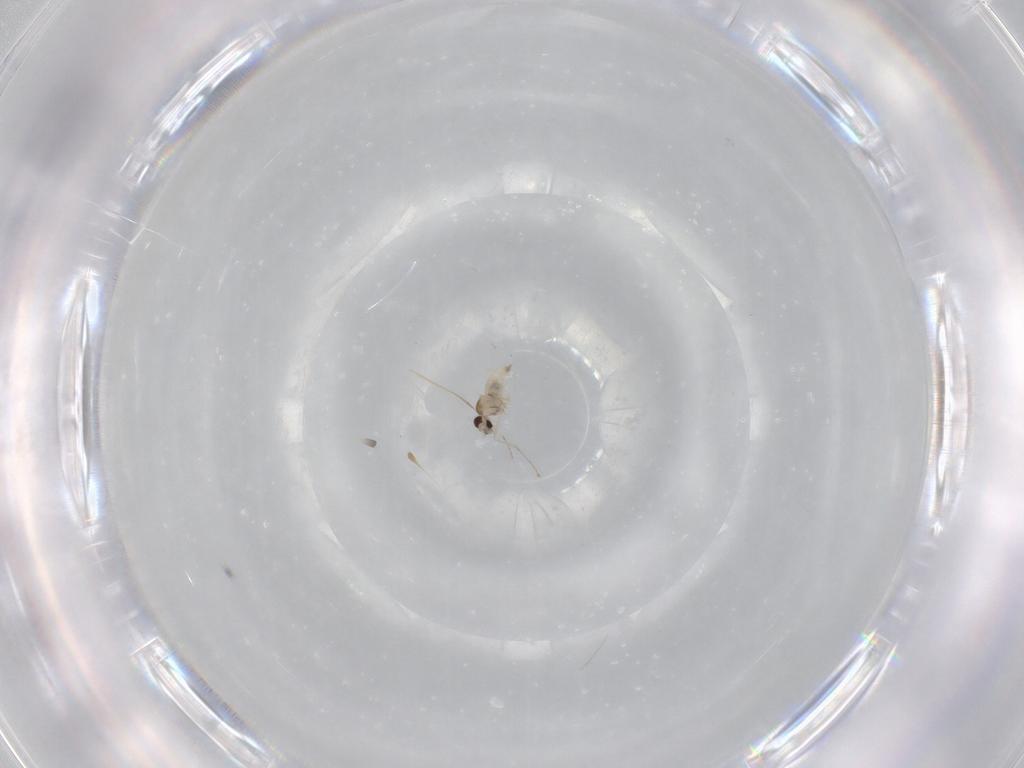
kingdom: Animalia
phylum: Arthropoda
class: Insecta
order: Diptera
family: Cecidomyiidae
